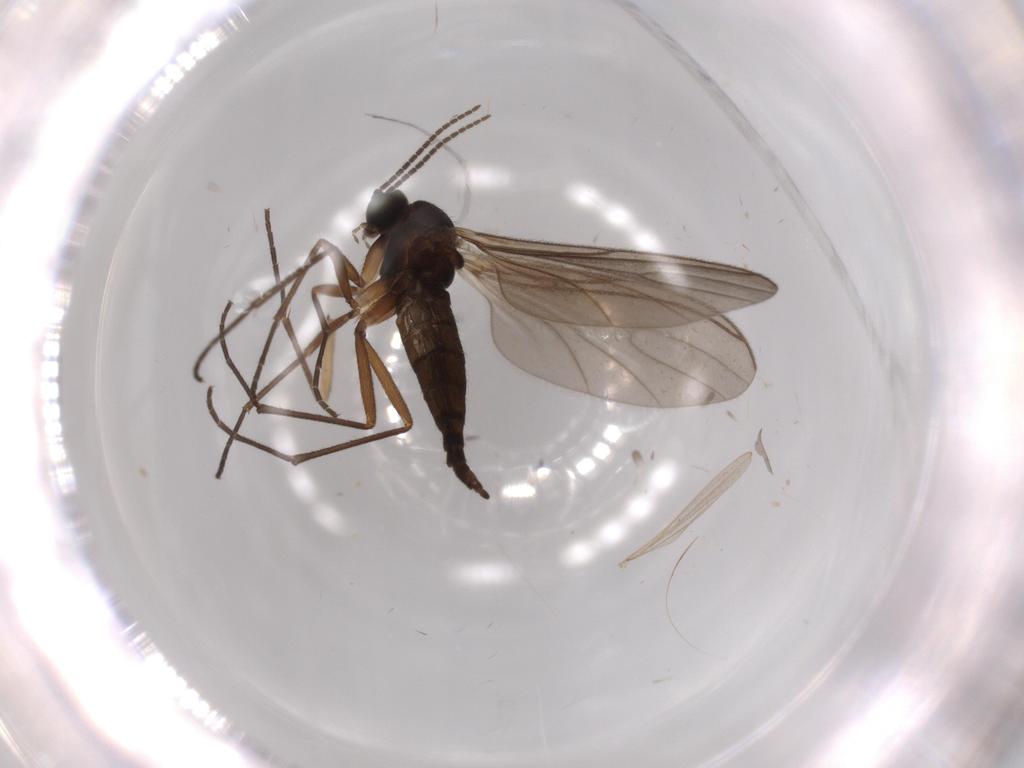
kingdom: Animalia
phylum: Arthropoda
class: Insecta
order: Diptera
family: Sciaridae
